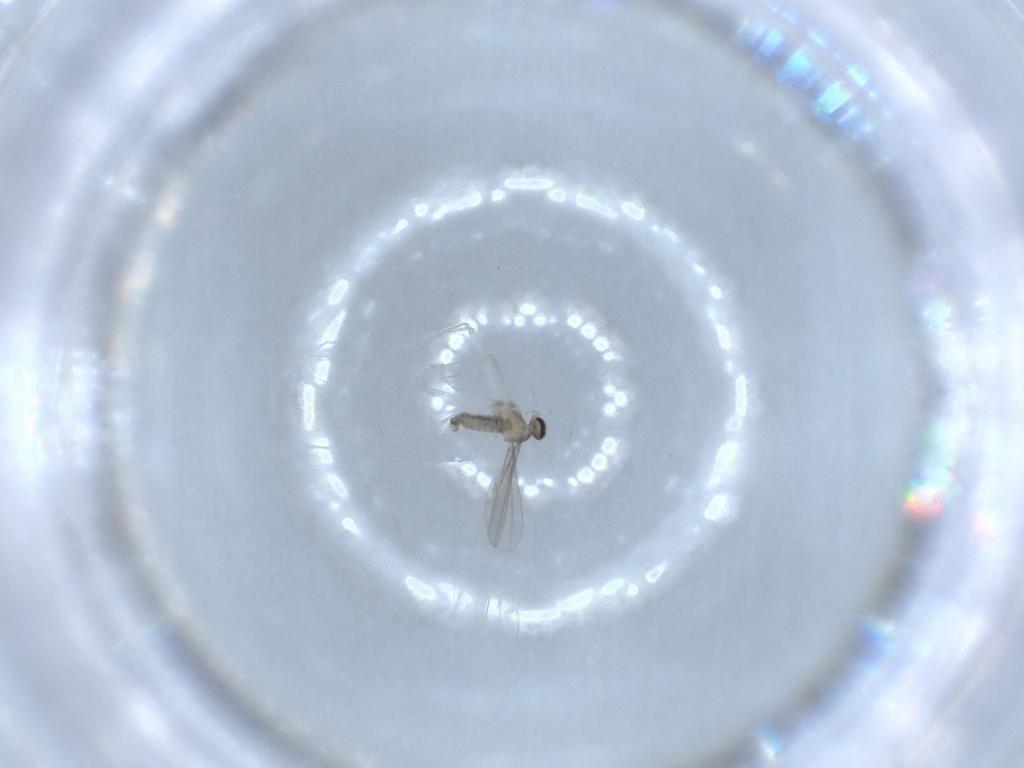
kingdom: Animalia
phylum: Arthropoda
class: Insecta
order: Diptera
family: Cecidomyiidae
